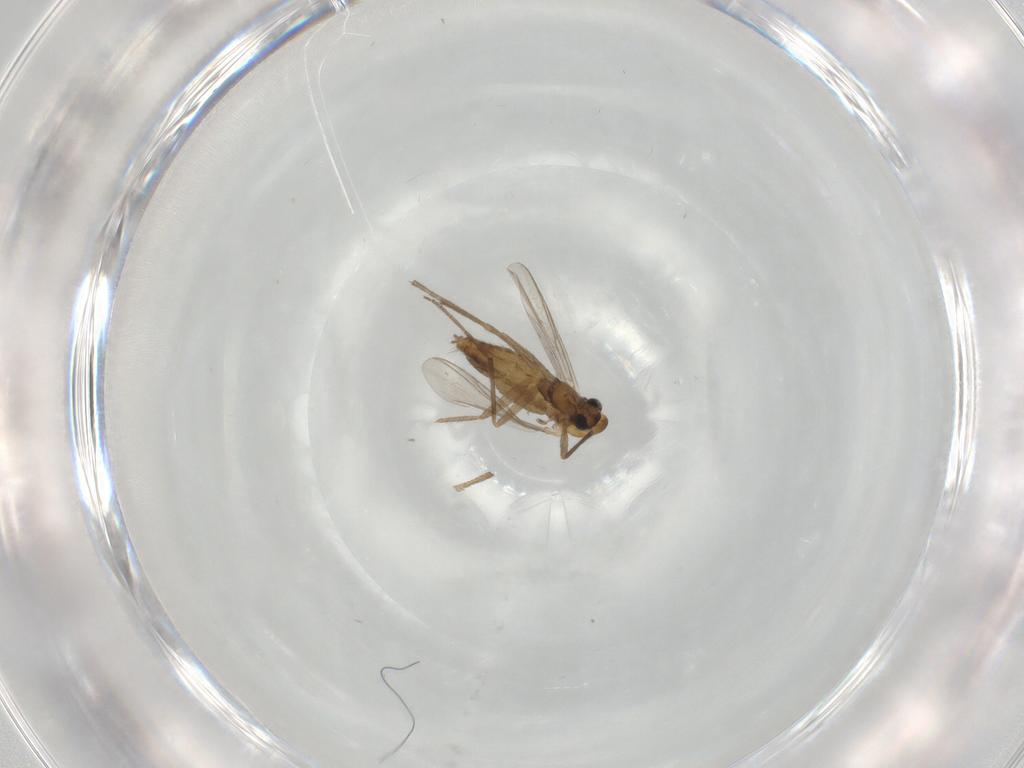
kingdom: Animalia
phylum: Arthropoda
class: Insecta
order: Diptera
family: Chironomidae
